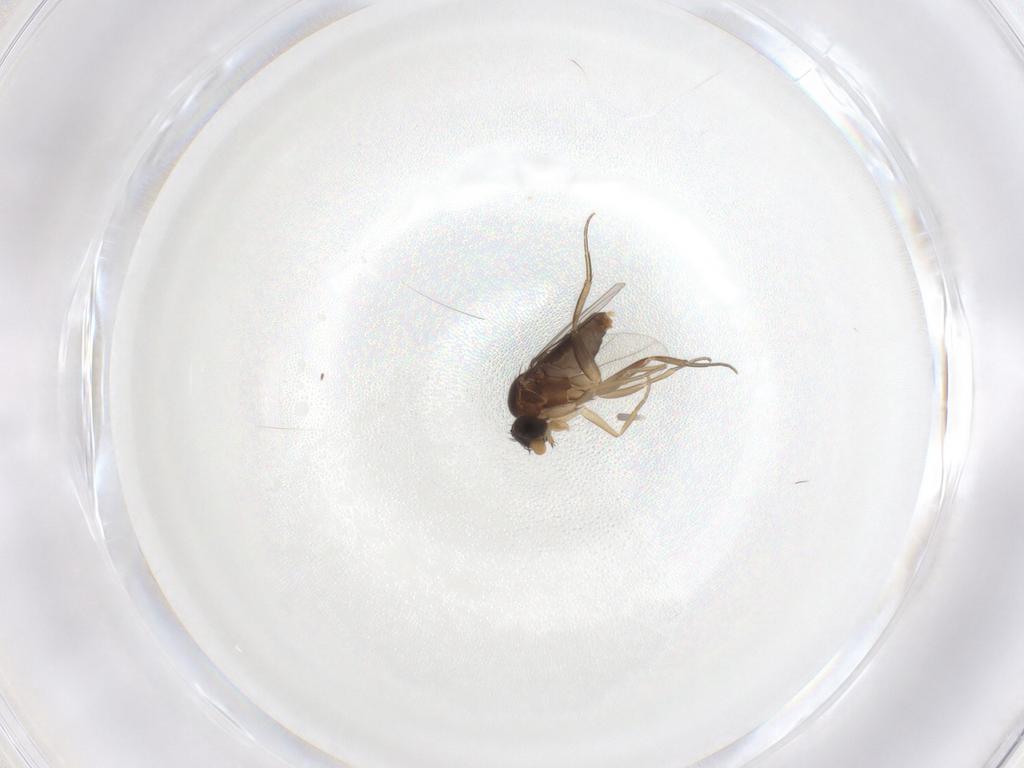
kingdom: Animalia
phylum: Arthropoda
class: Insecta
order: Diptera
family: Phoridae
